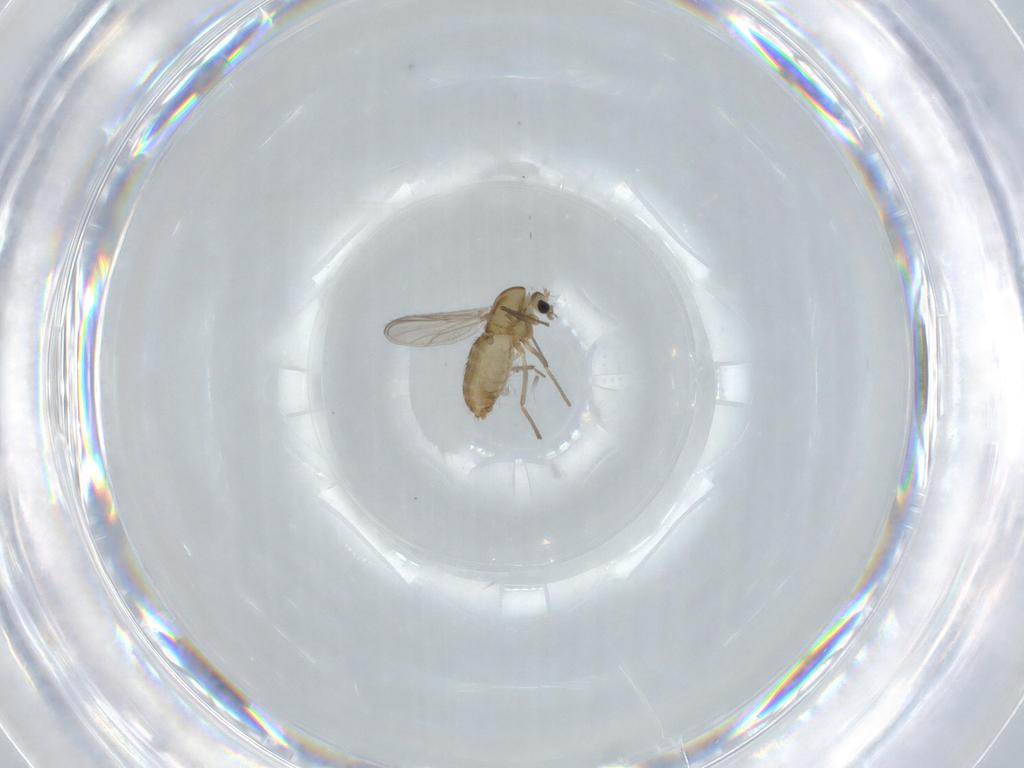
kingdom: Animalia
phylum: Arthropoda
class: Insecta
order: Diptera
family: Chironomidae
